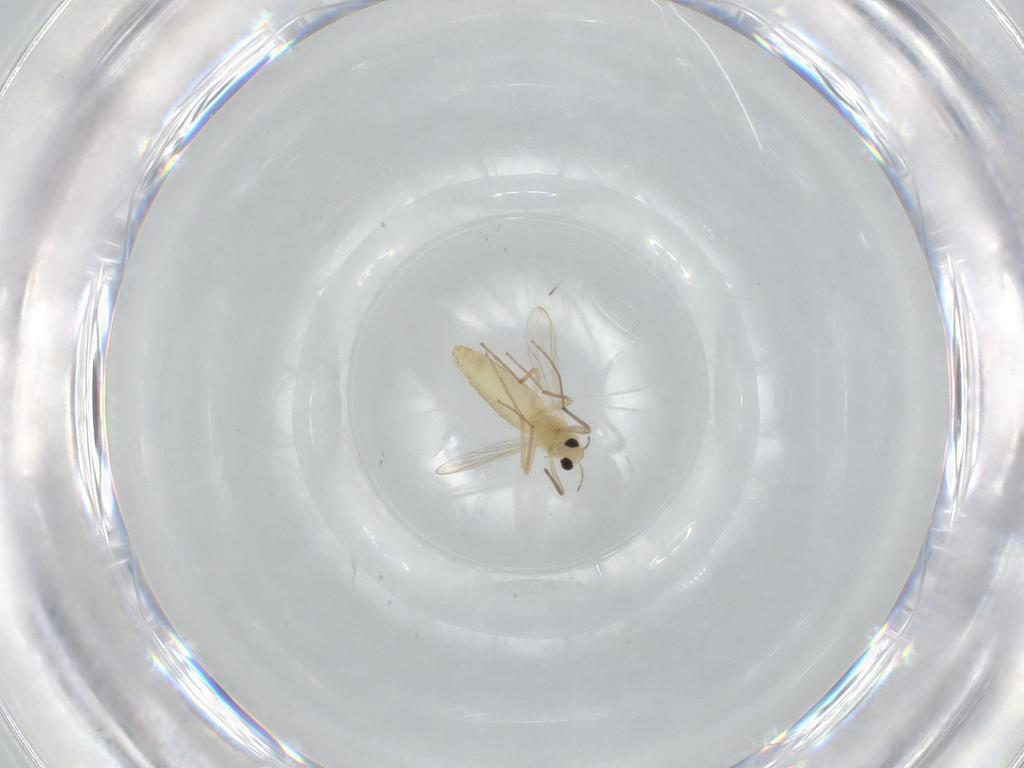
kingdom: Animalia
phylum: Arthropoda
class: Insecta
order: Diptera
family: Chironomidae
